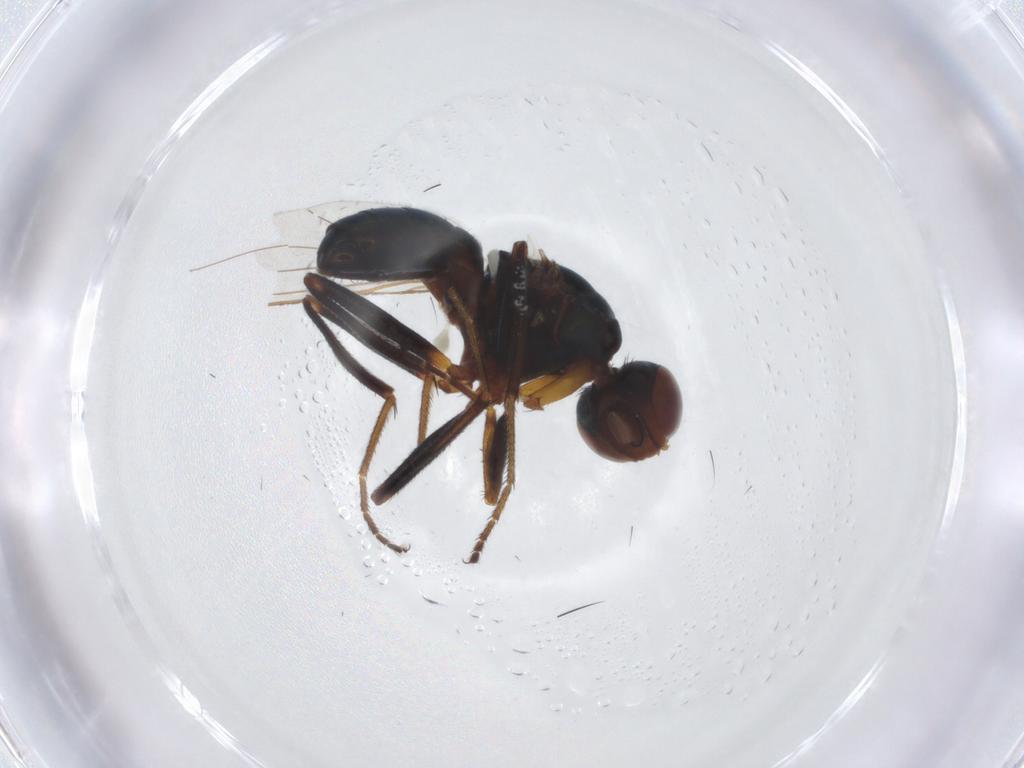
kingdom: Animalia
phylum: Arthropoda
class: Insecta
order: Diptera
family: Sepsidae
